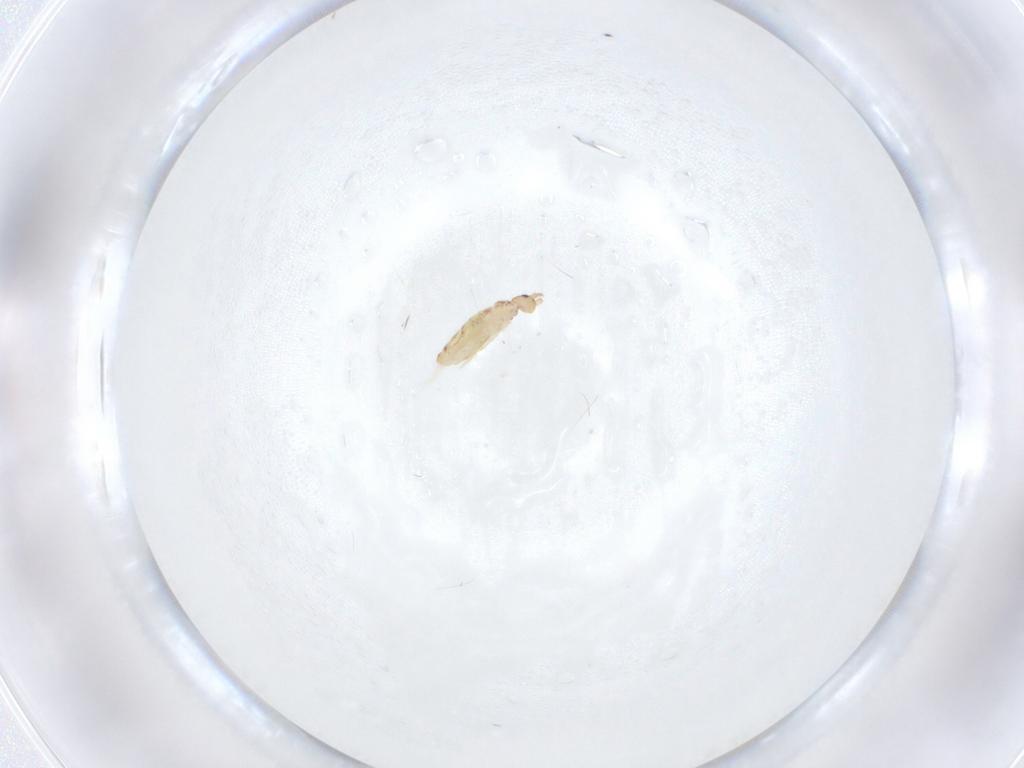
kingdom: Animalia
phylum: Arthropoda
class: Collembola
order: Entomobryomorpha
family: Entomobryidae
